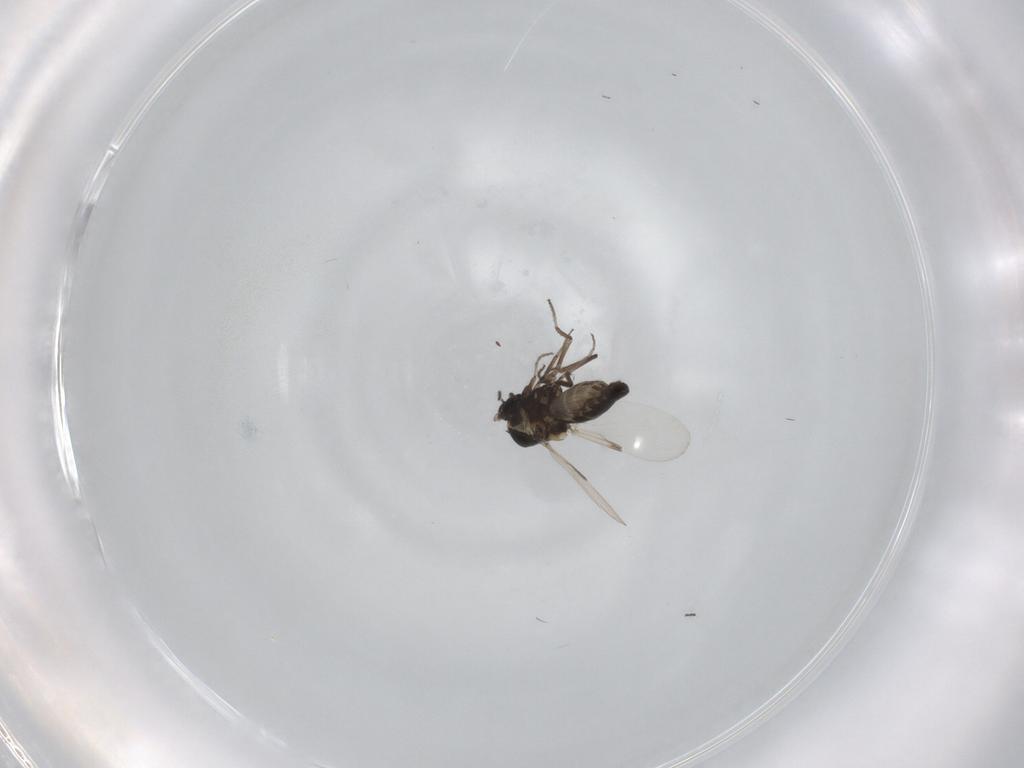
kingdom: Animalia
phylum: Arthropoda
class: Insecta
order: Diptera
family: Ceratopogonidae
